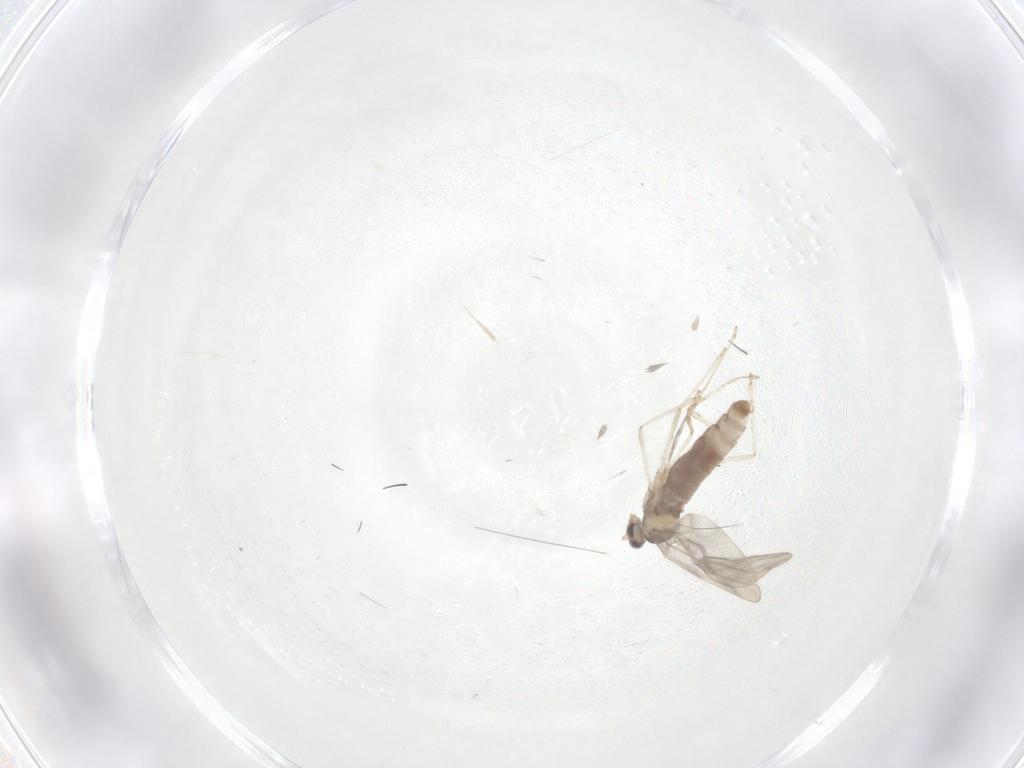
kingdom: Animalia
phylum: Arthropoda
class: Insecta
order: Diptera
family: Cecidomyiidae
